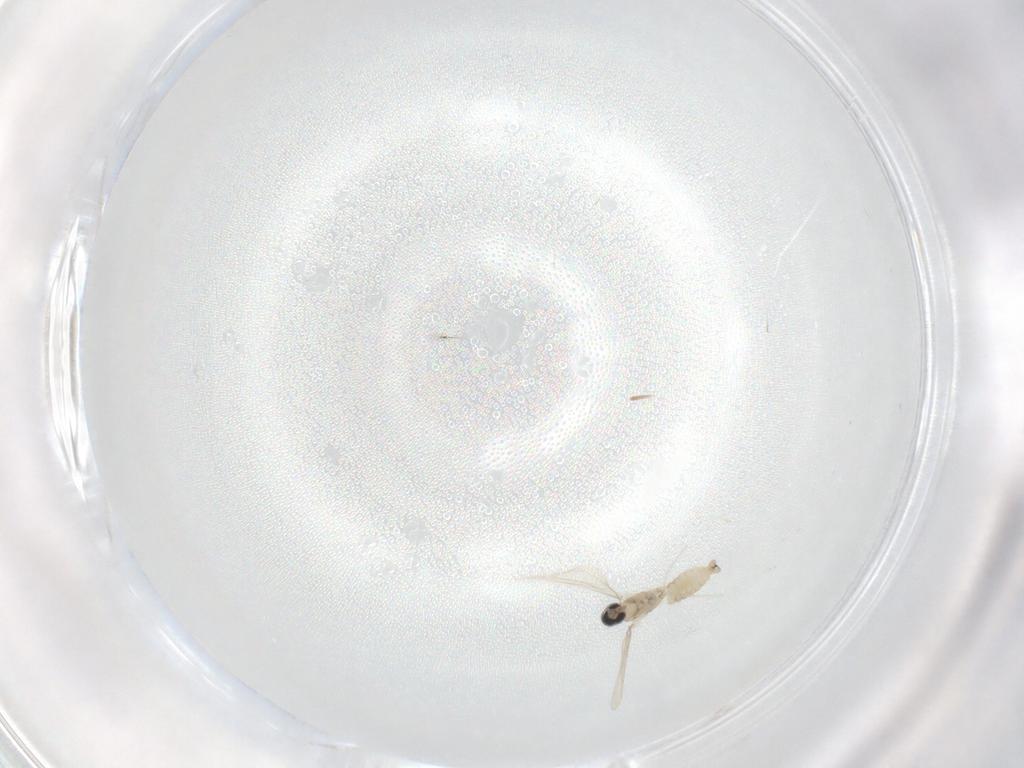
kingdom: Animalia
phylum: Arthropoda
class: Insecta
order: Diptera
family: Cecidomyiidae
